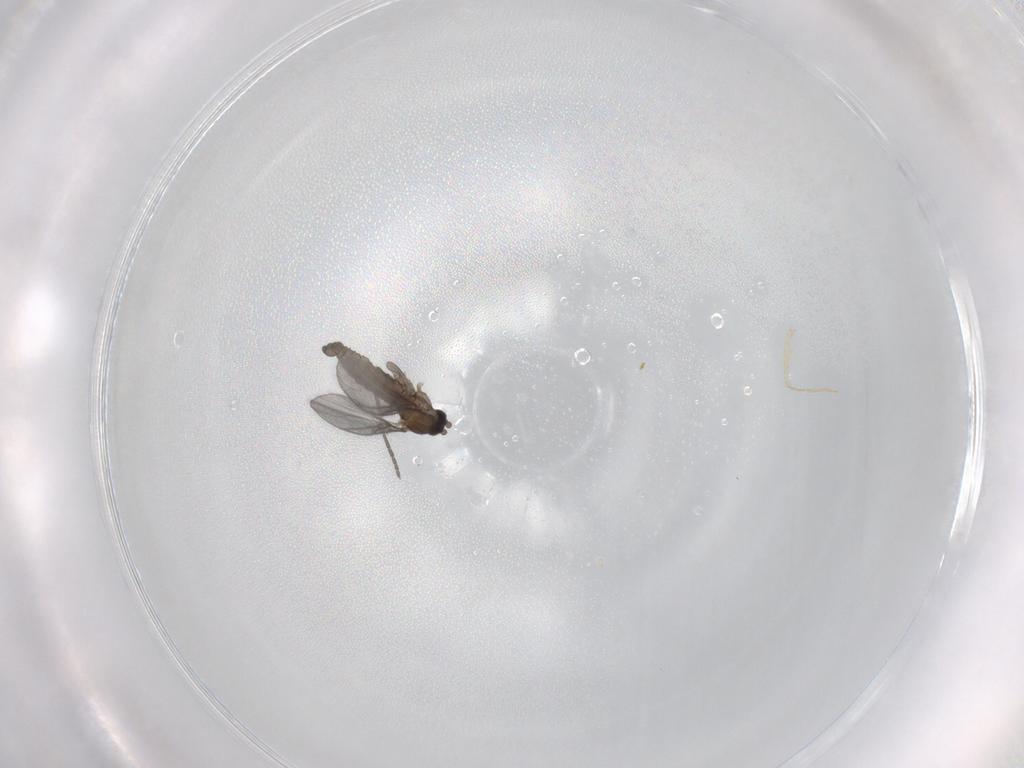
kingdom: Animalia
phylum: Arthropoda
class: Insecta
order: Diptera
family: Sciaridae
